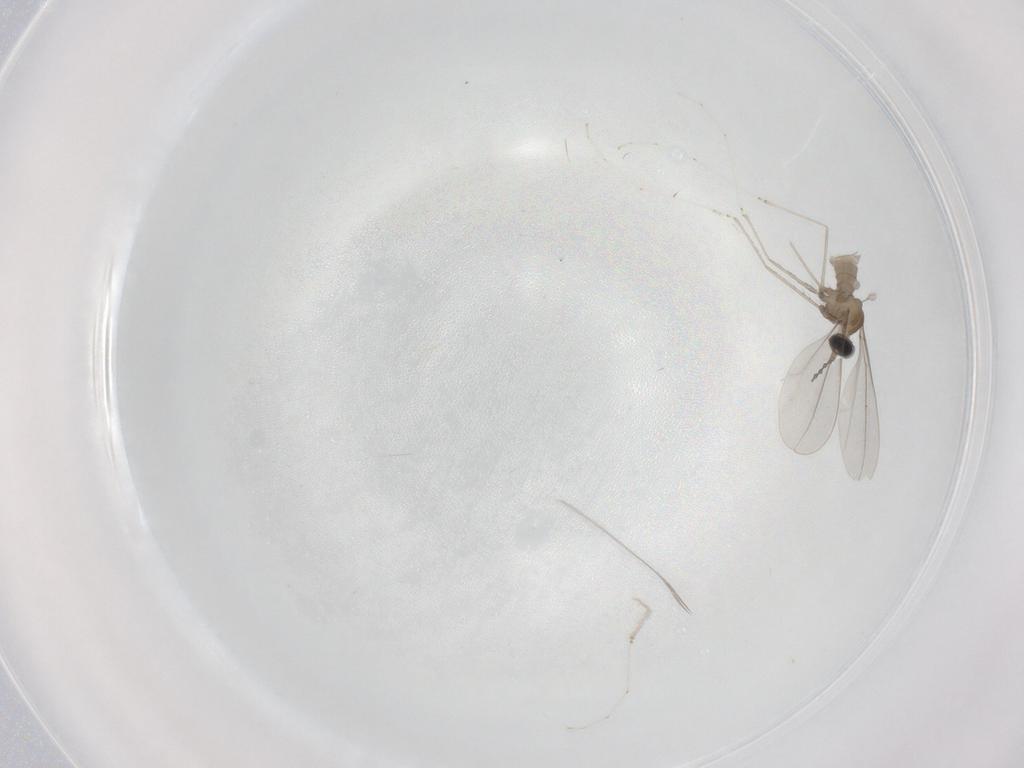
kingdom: Animalia
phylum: Arthropoda
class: Insecta
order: Diptera
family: Cecidomyiidae
